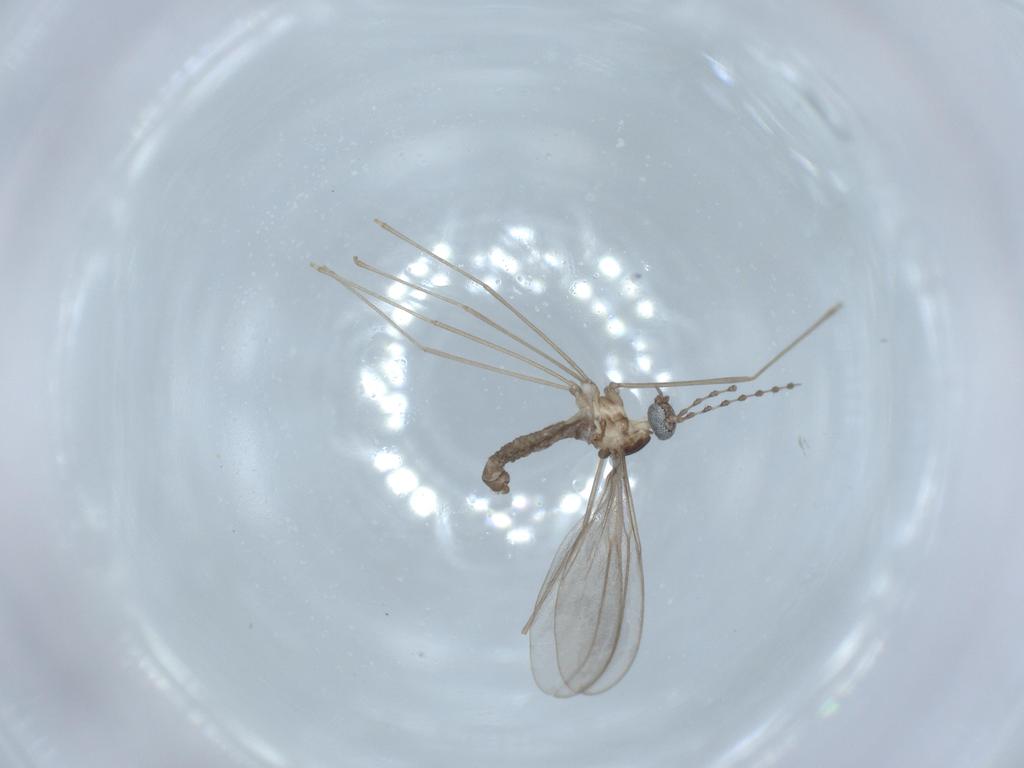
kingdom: Animalia
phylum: Arthropoda
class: Insecta
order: Diptera
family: Cecidomyiidae
